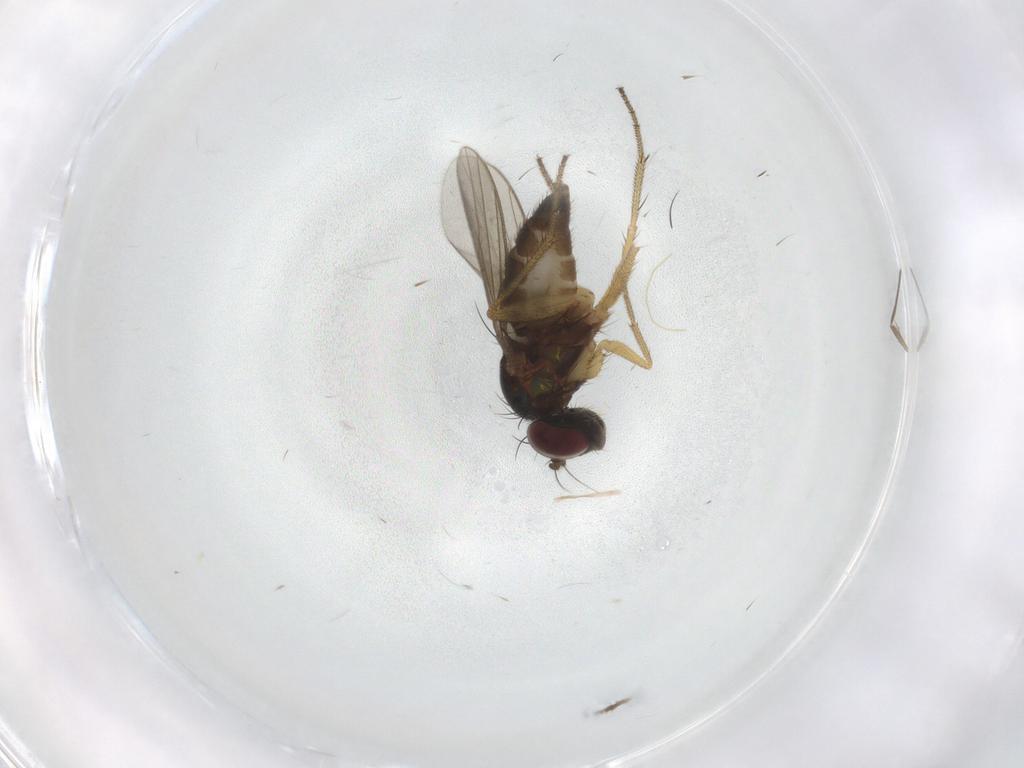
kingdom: Animalia
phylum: Arthropoda
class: Insecta
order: Diptera
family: Chironomidae
